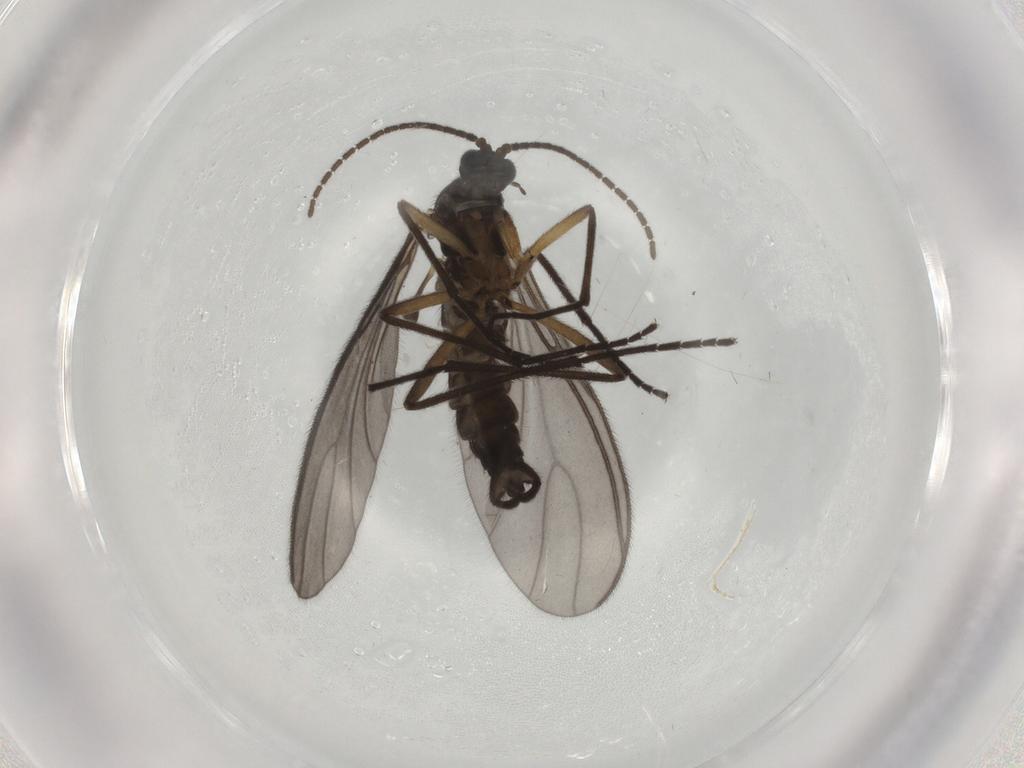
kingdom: Animalia
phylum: Arthropoda
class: Insecta
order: Diptera
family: Sciaridae
